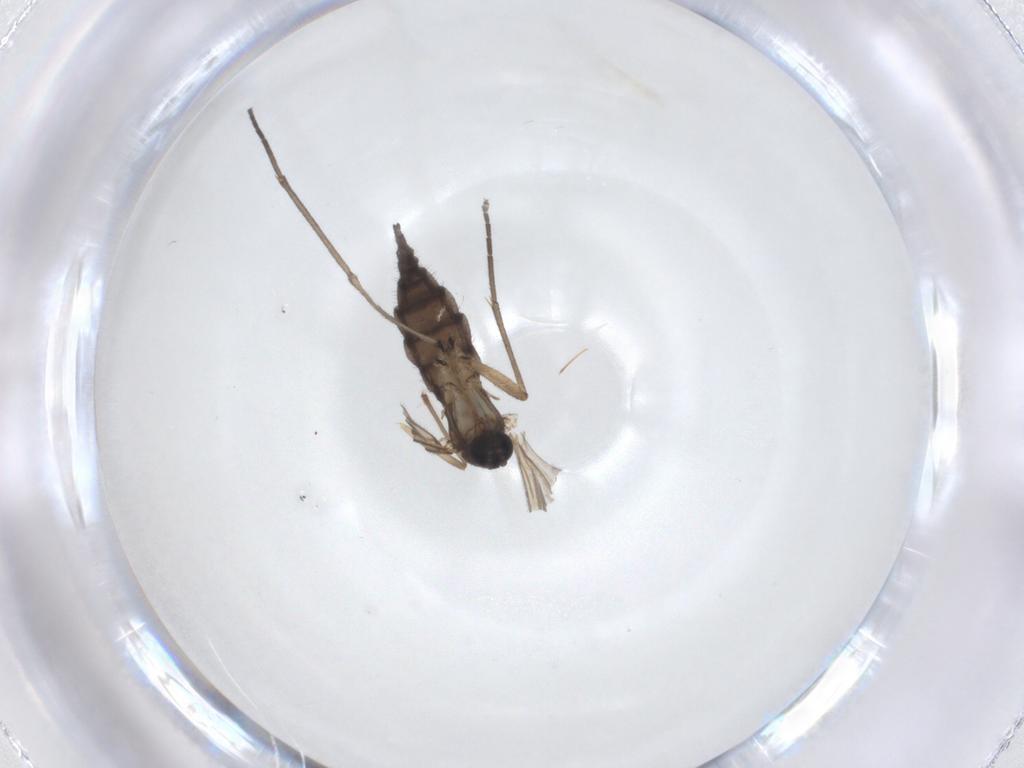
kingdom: Animalia
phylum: Arthropoda
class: Insecta
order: Diptera
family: Sciaridae
